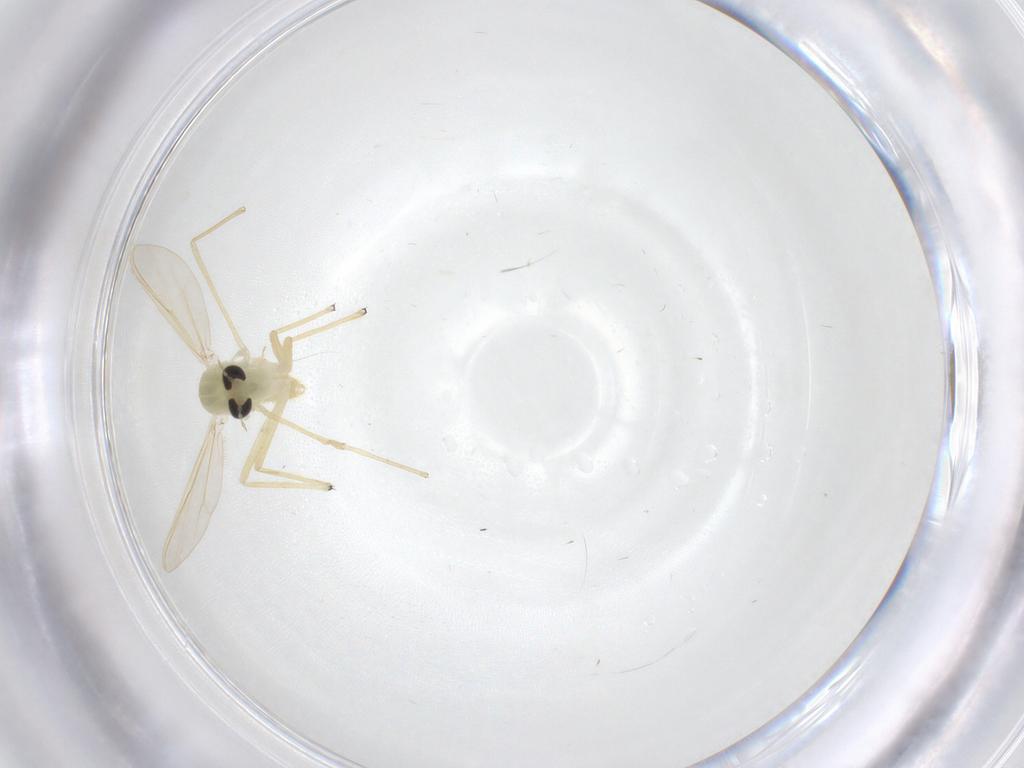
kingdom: Animalia
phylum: Arthropoda
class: Insecta
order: Diptera
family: Chironomidae
